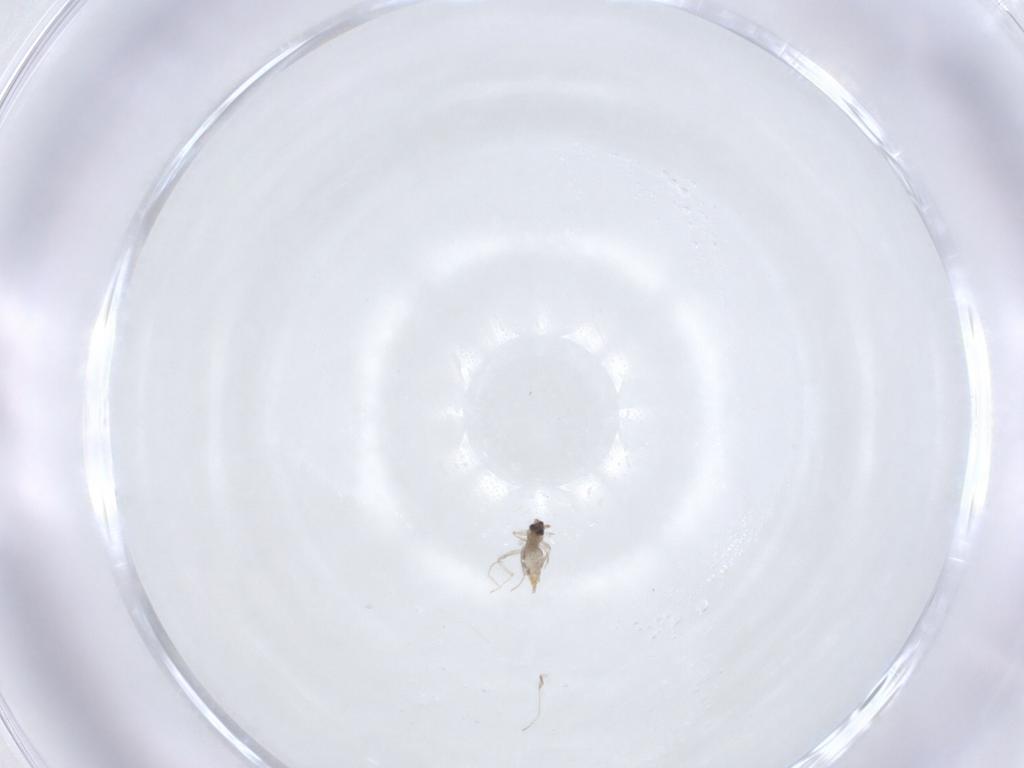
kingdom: Animalia
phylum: Arthropoda
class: Insecta
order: Diptera
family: Cecidomyiidae
